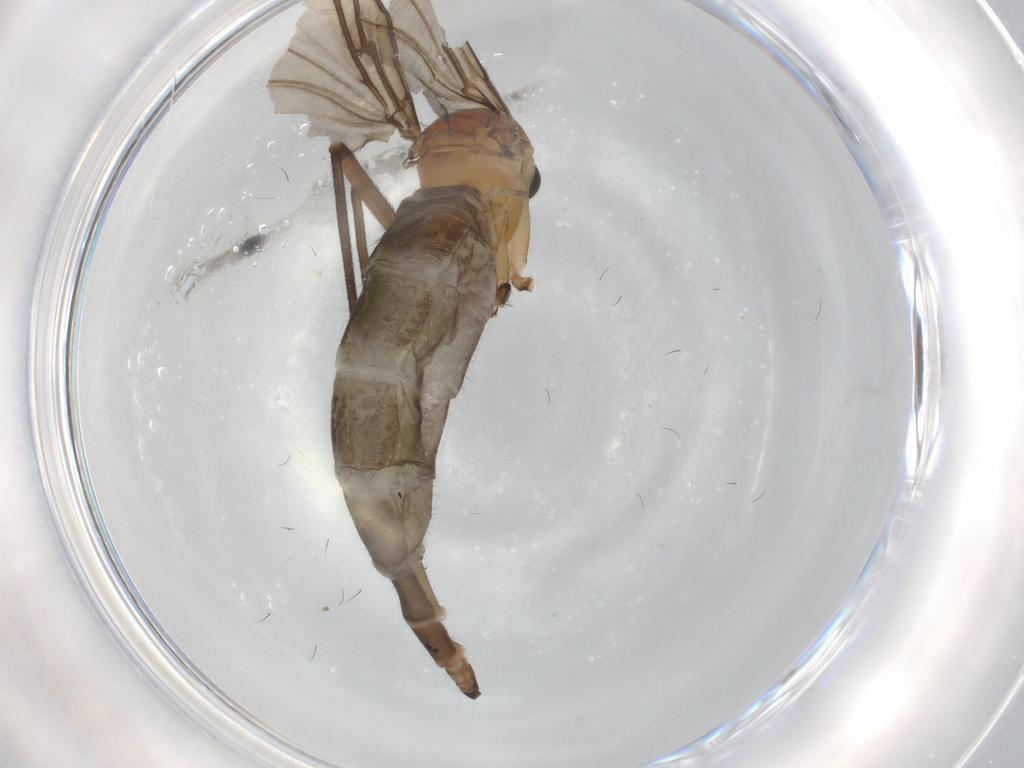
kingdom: Animalia
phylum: Arthropoda
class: Insecta
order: Diptera
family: Sciaridae
